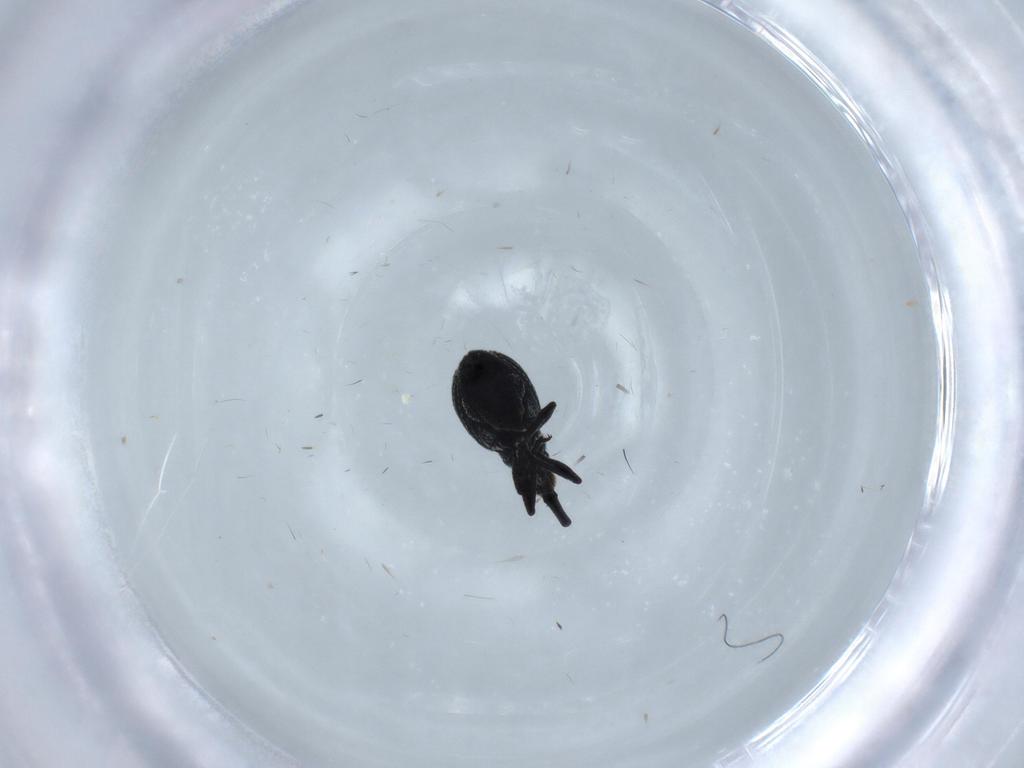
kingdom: Animalia
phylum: Arthropoda
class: Insecta
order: Coleoptera
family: Brentidae
